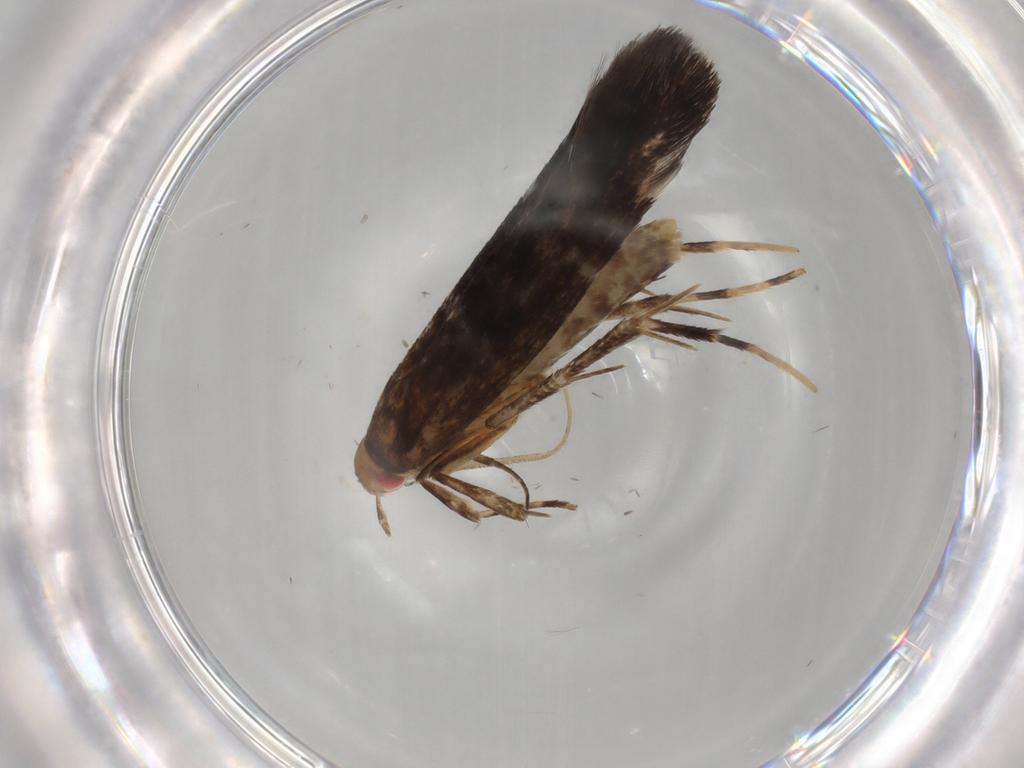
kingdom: Animalia
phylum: Arthropoda
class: Insecta
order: Lepidoptera
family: Cosmopterigidae
